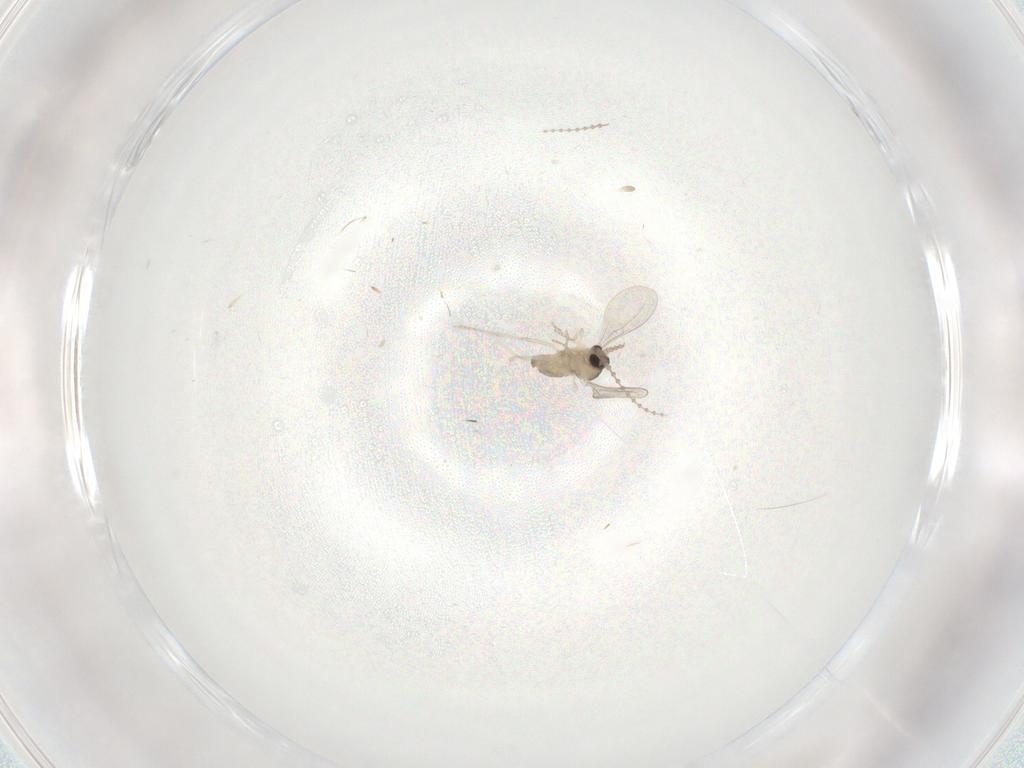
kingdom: Animalia
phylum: Arthropoda
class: Insecta
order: Diptera
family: Cecidomyiidae
